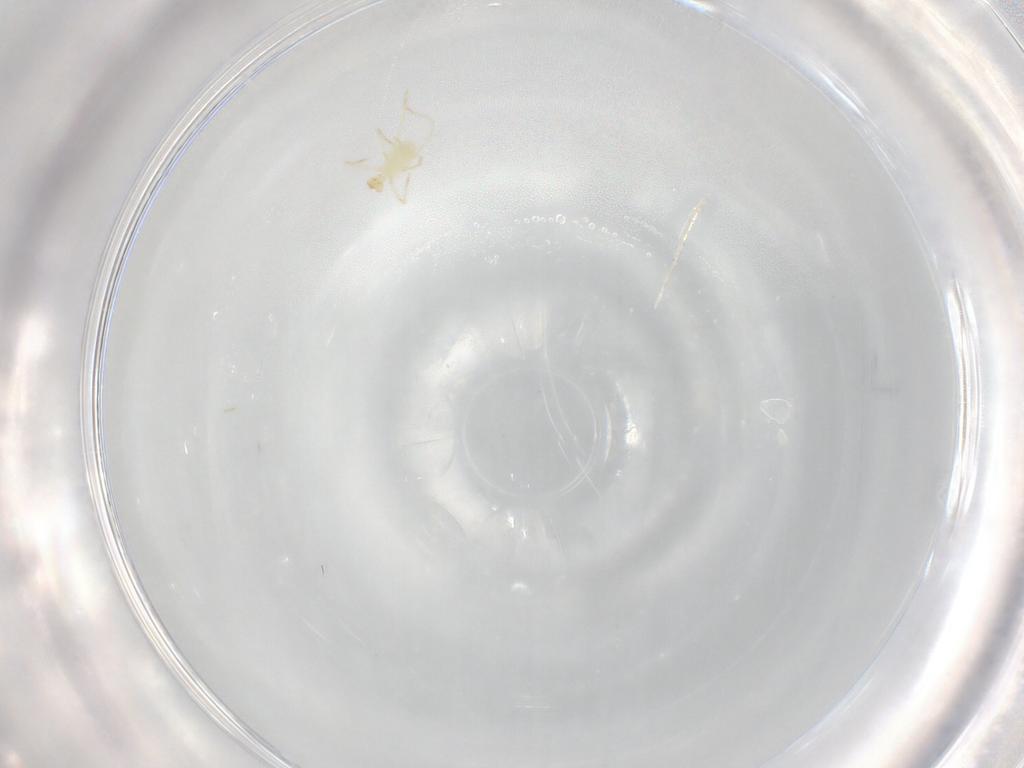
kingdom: Animalia
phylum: Arthropoda
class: Arachnida
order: Trombidiformes
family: Erythraeidae
